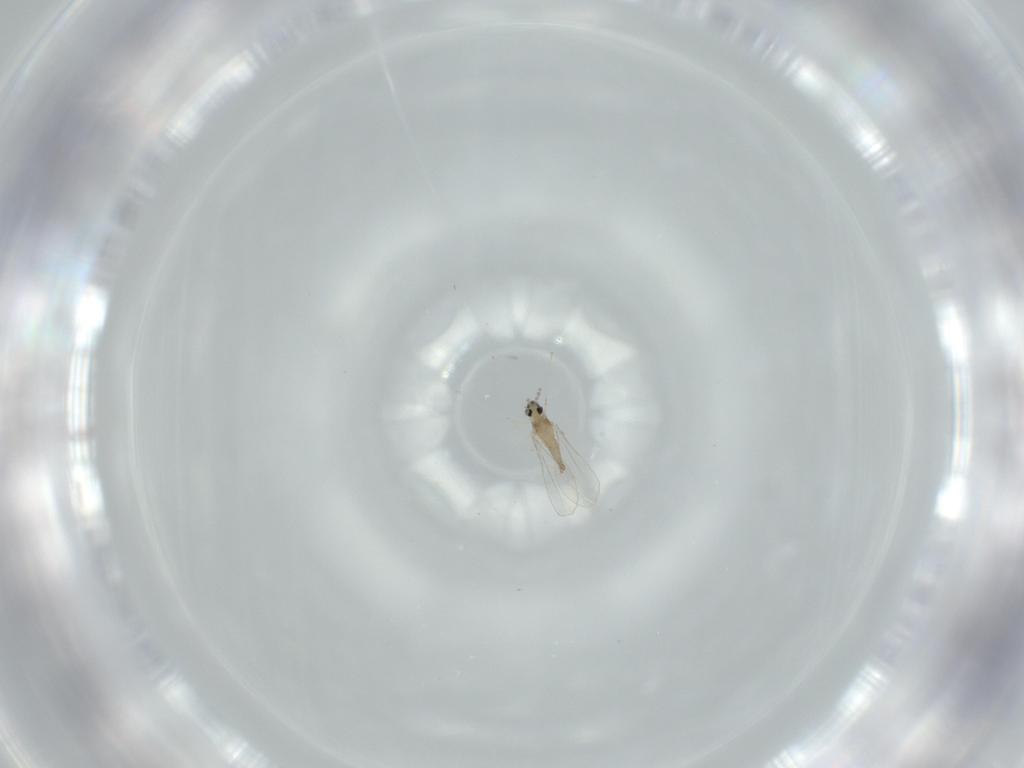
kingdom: Animalia
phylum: Arthropoda
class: Insecta
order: Diptera
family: Cecidomyiidae
